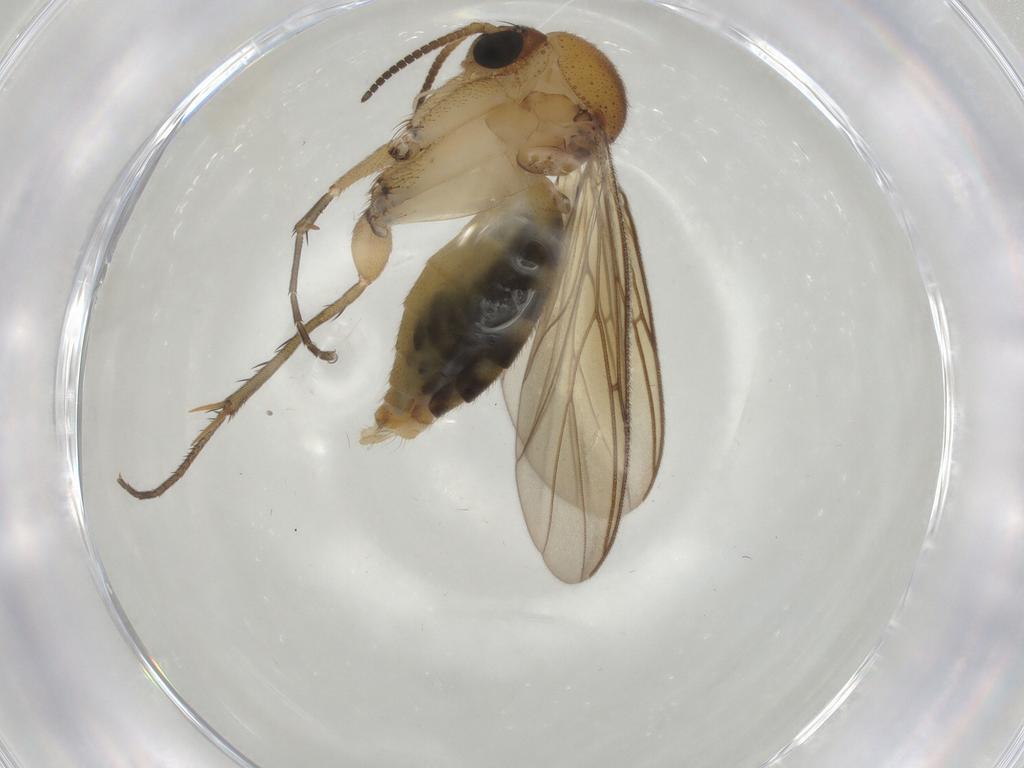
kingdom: Animalia
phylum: Arthropoda
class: Insecta
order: Diptera
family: Mycetophilidae
